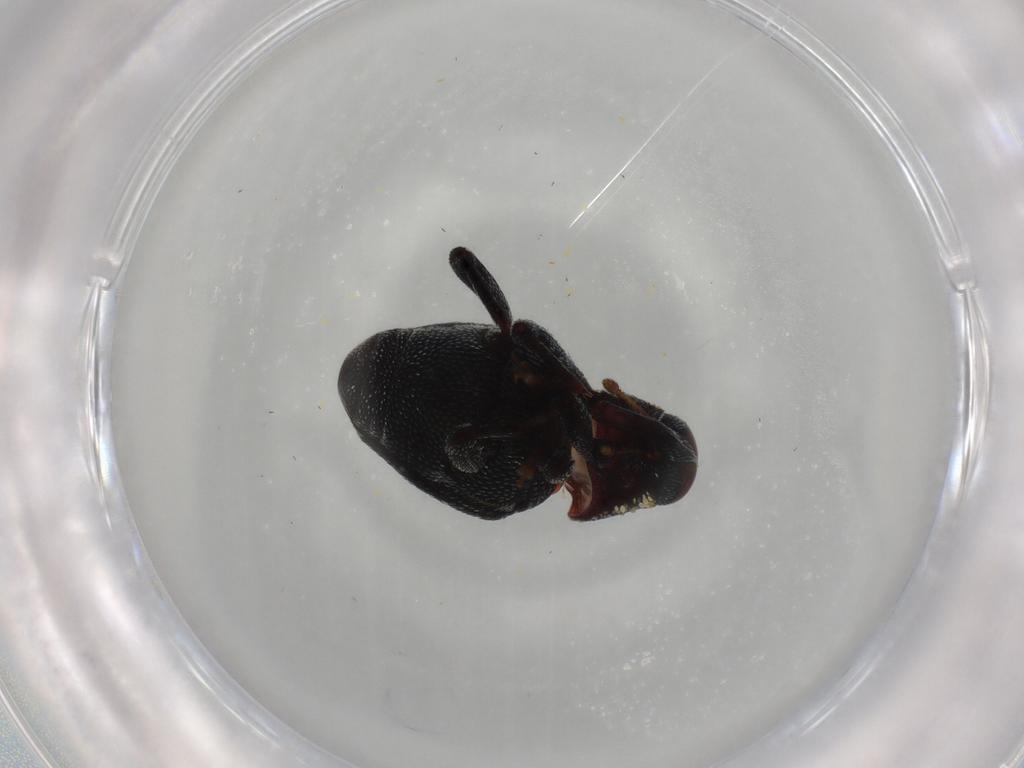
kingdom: Animalia
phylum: Arthropoda
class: Insecta
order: Coleoptera
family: Curculionidae
